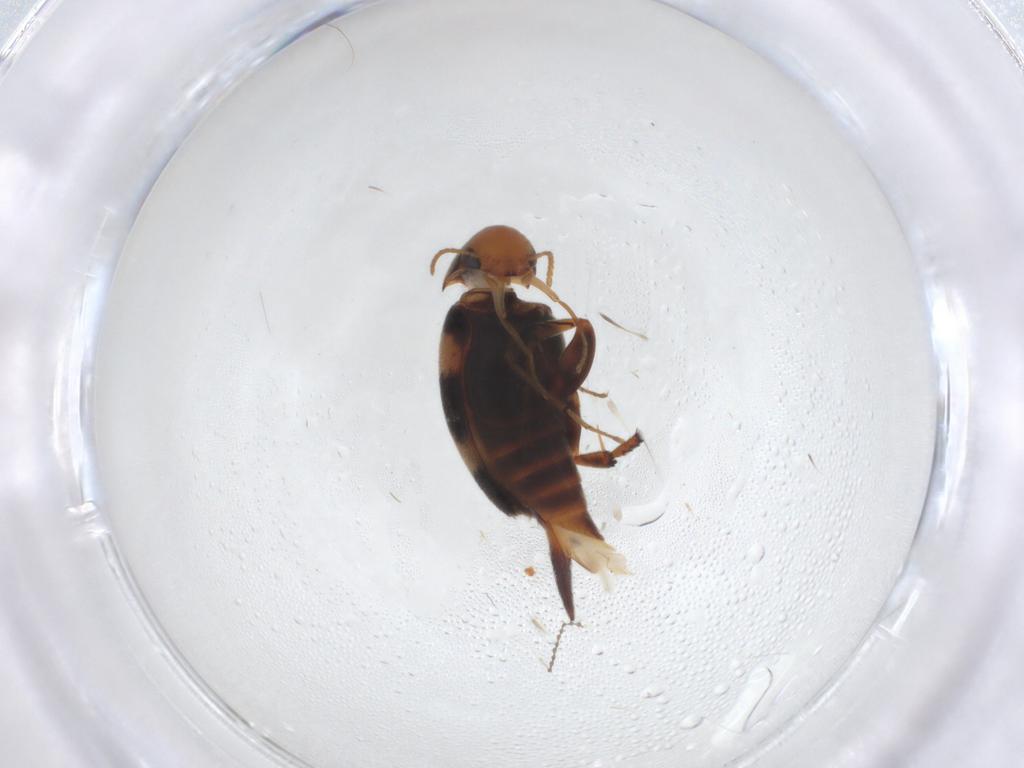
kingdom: Animalia
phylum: Arthropoda
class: Insecta
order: Coleoptera
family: Mordellidae
